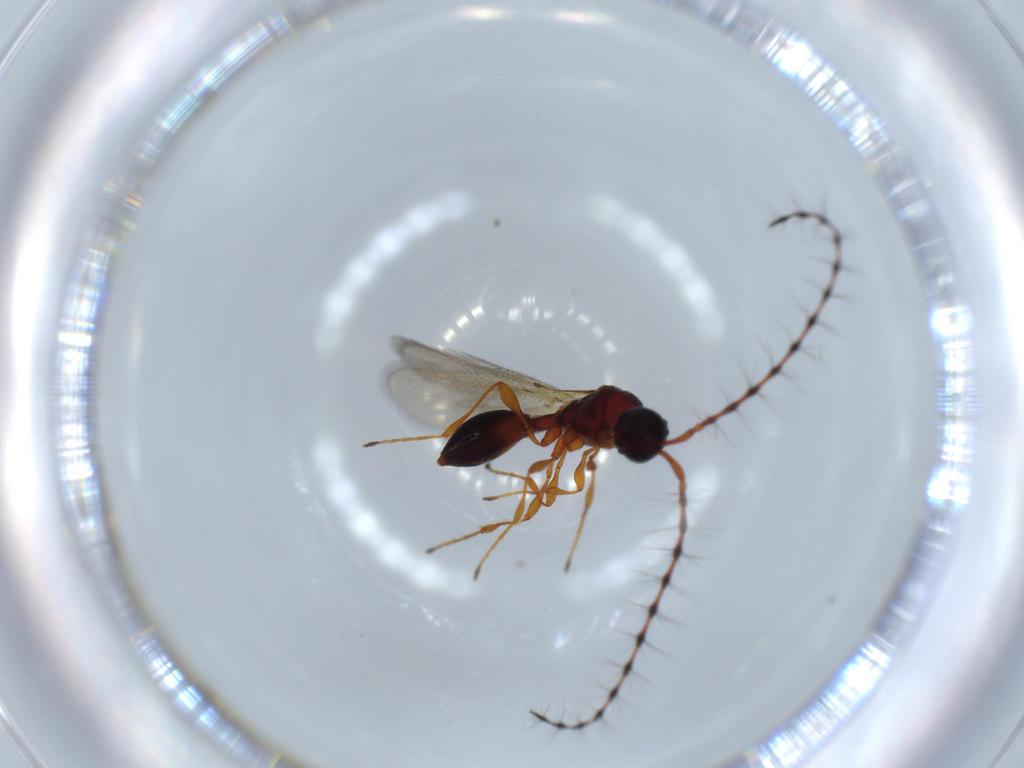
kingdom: Animalia
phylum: Arthropoda
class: Insecta
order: Hymenoptera
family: Diapriidae
